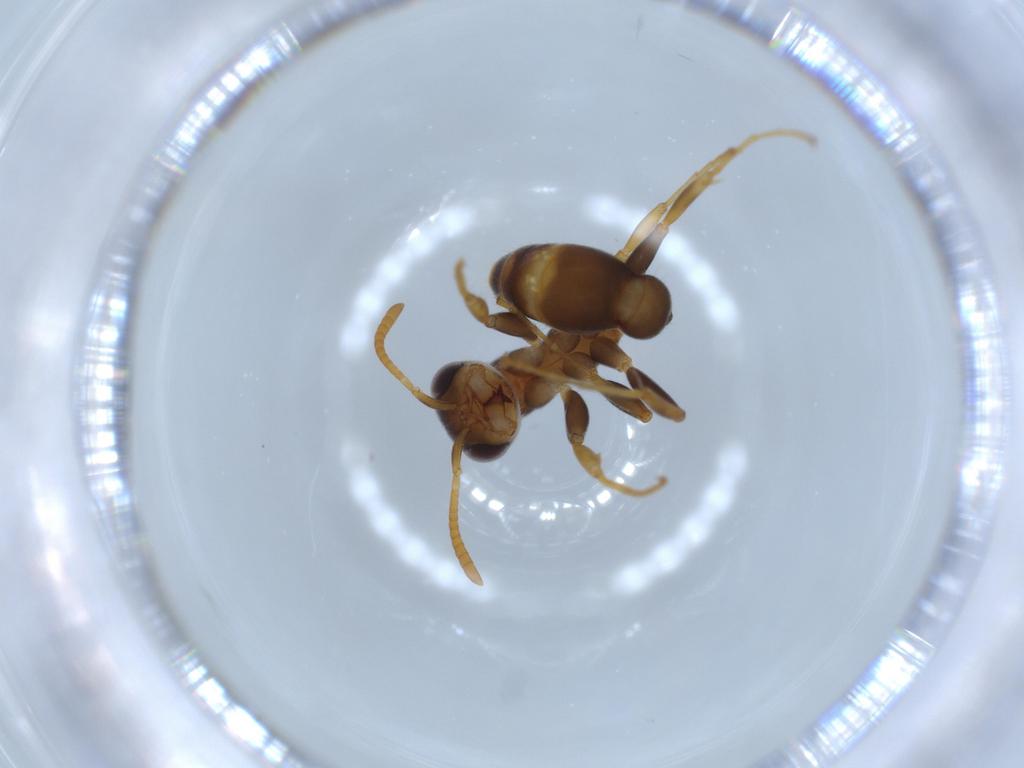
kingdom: Animalia
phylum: Arthropoda
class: Insecta
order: Hymenoptera
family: Formicidae
